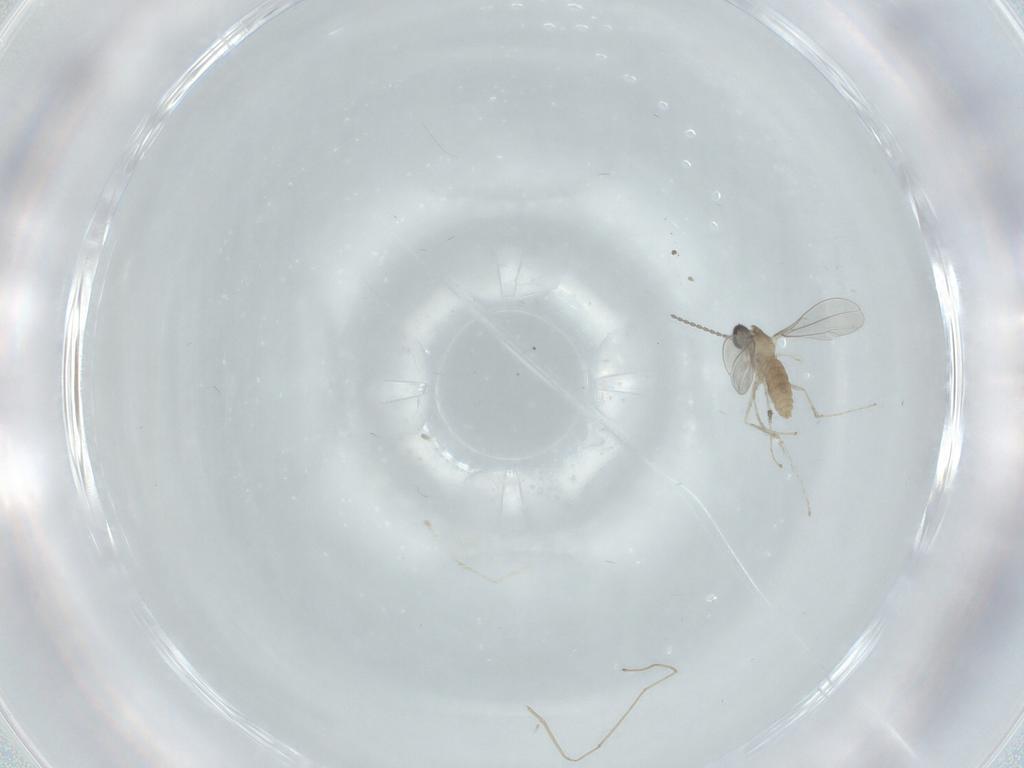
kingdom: Animalia
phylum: Arthropoda
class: Insecta
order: Diptera
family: Cecidomyiidae
